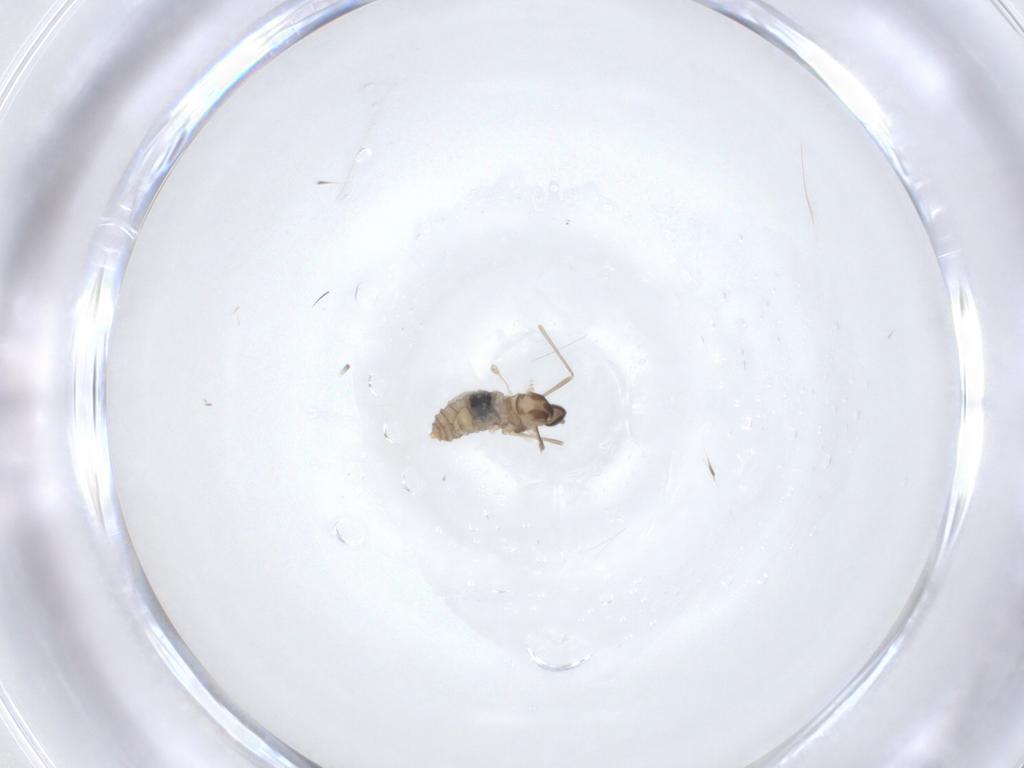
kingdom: Animalia
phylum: Arthropoda
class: Insecta
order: Diptera
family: Cecidomyiidae
